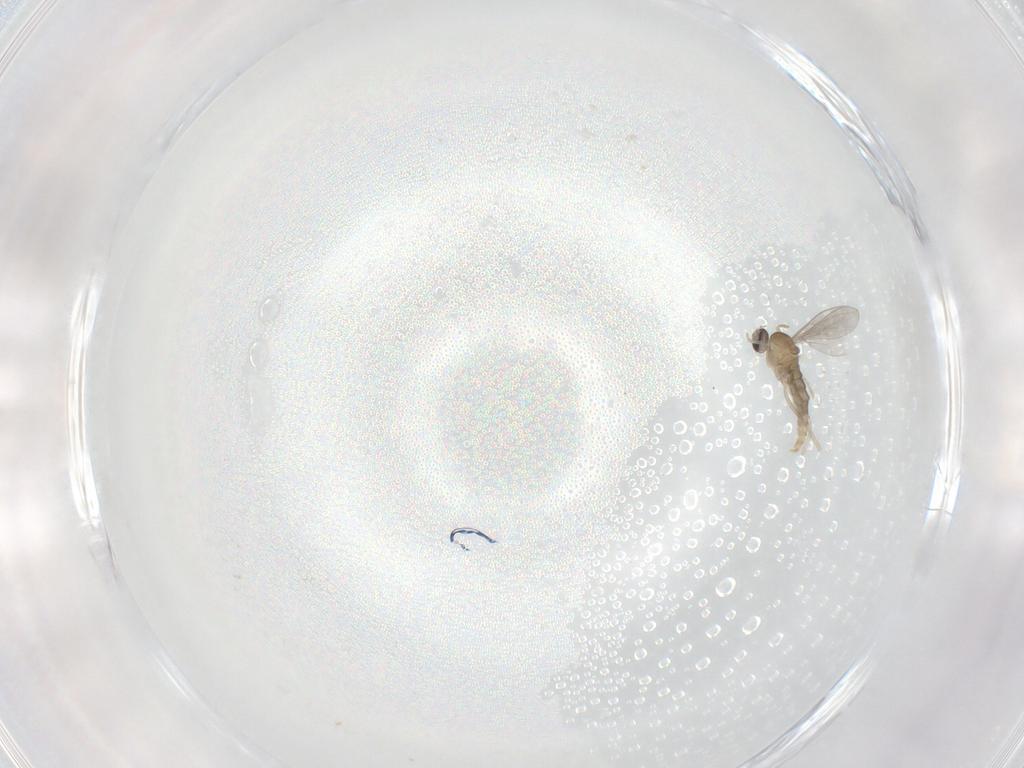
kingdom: Animalia
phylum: Arthropoda
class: Insecta
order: Diptera
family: Cecidomyiidae
